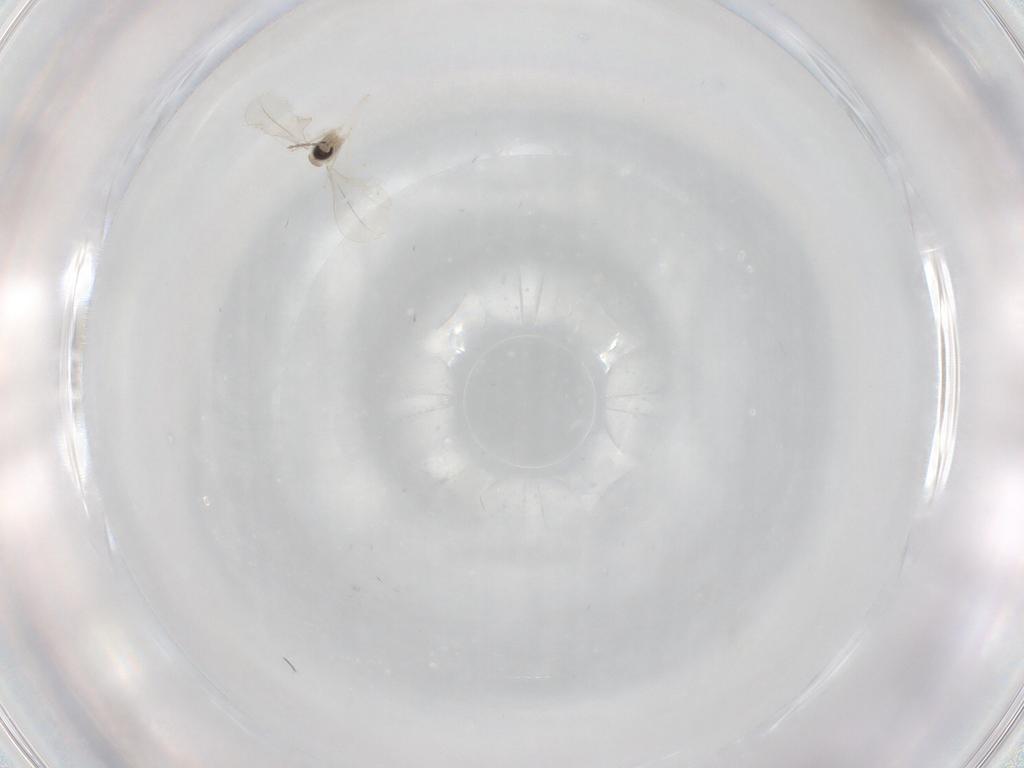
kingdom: Animalia
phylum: Arthropoda
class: Insecta
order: Diptera
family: Cecidomyiidae
